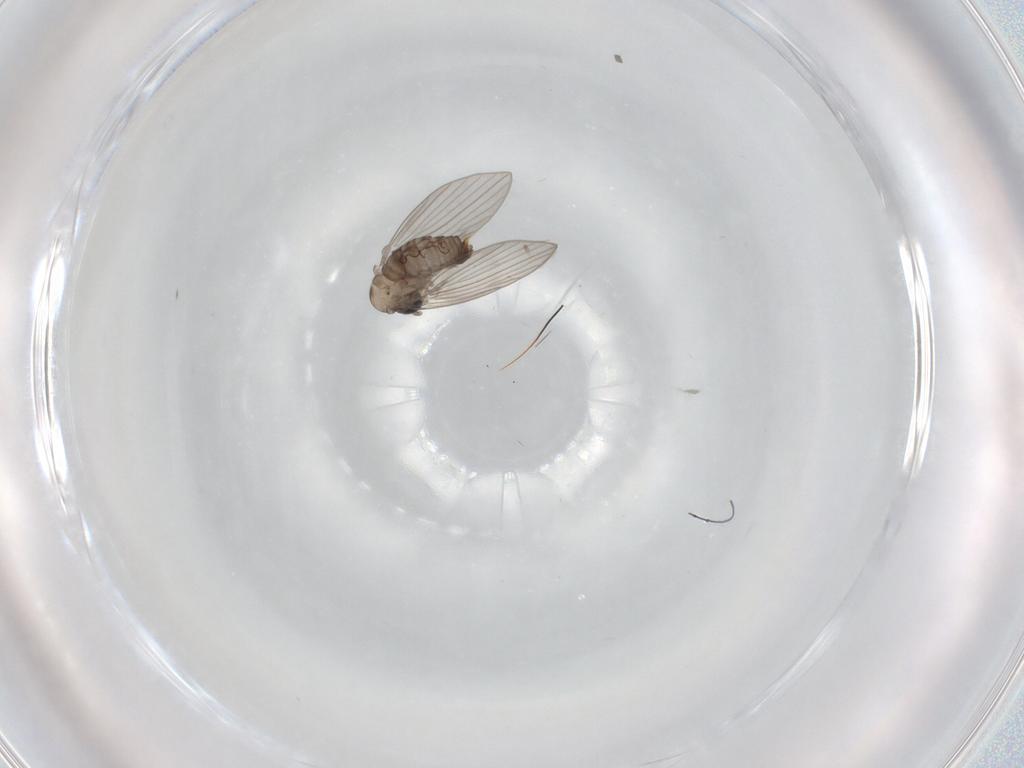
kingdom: Animalia
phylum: Arthropoda
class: Insecta
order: Diptera
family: Psychodidae
